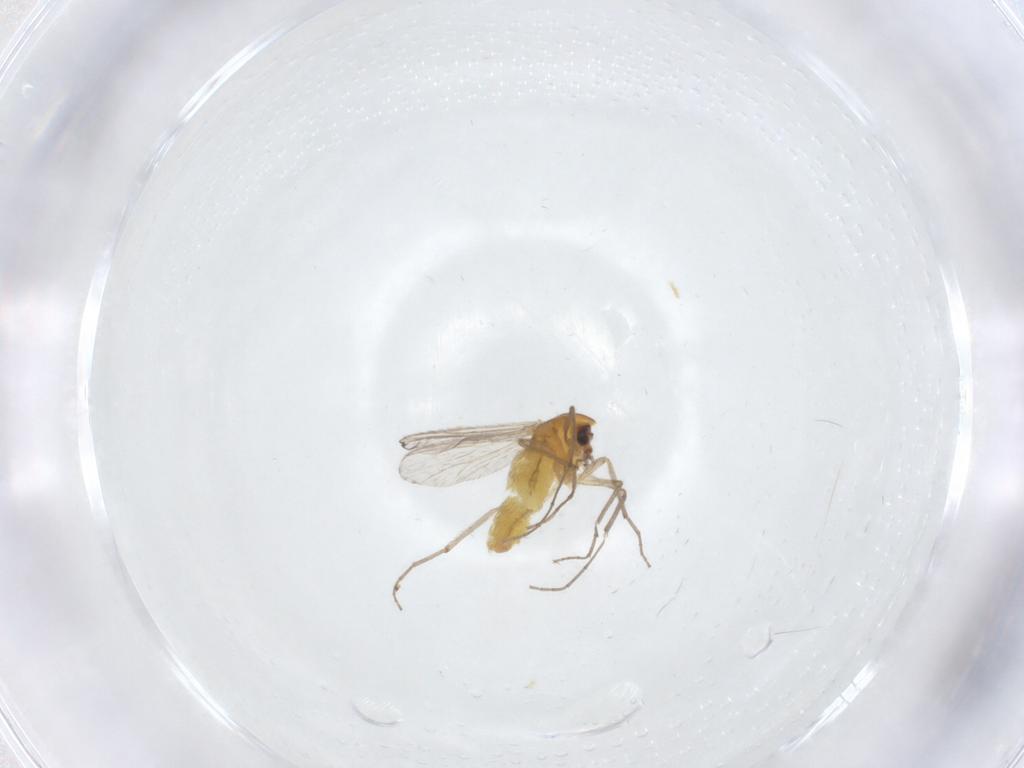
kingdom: Animalia
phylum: Arthropoda
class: Insecta
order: Diptera
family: Chironomidae
